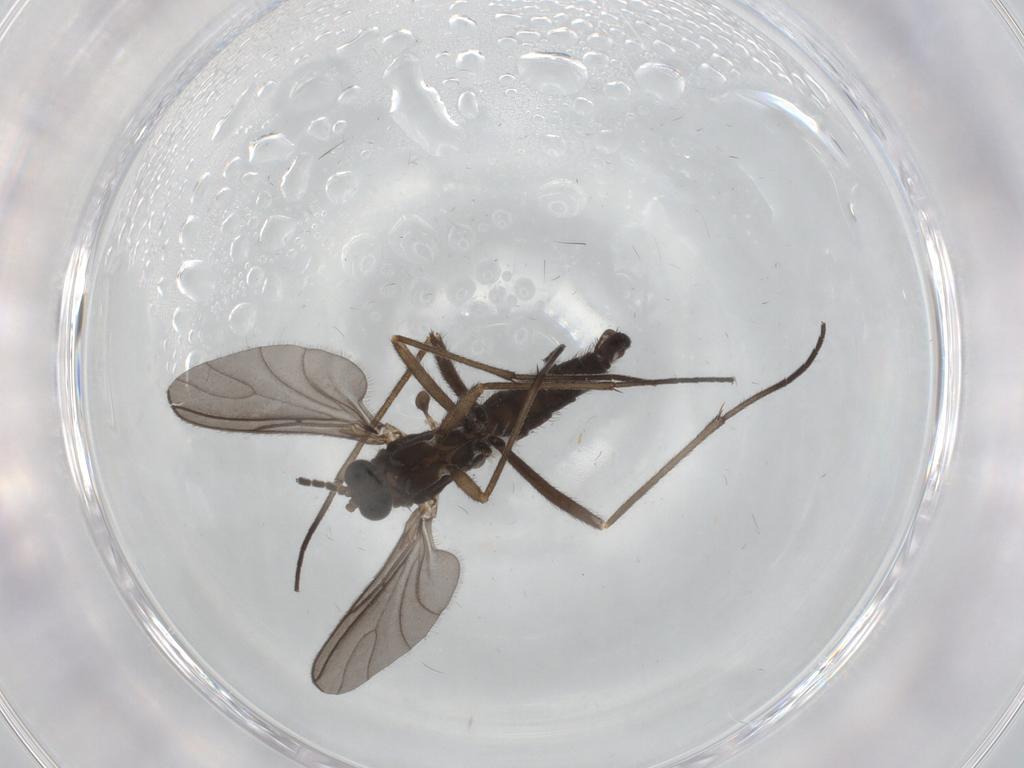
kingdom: Animalia
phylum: Arthropoda
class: Insecta
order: Diptera
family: Sciaridae
